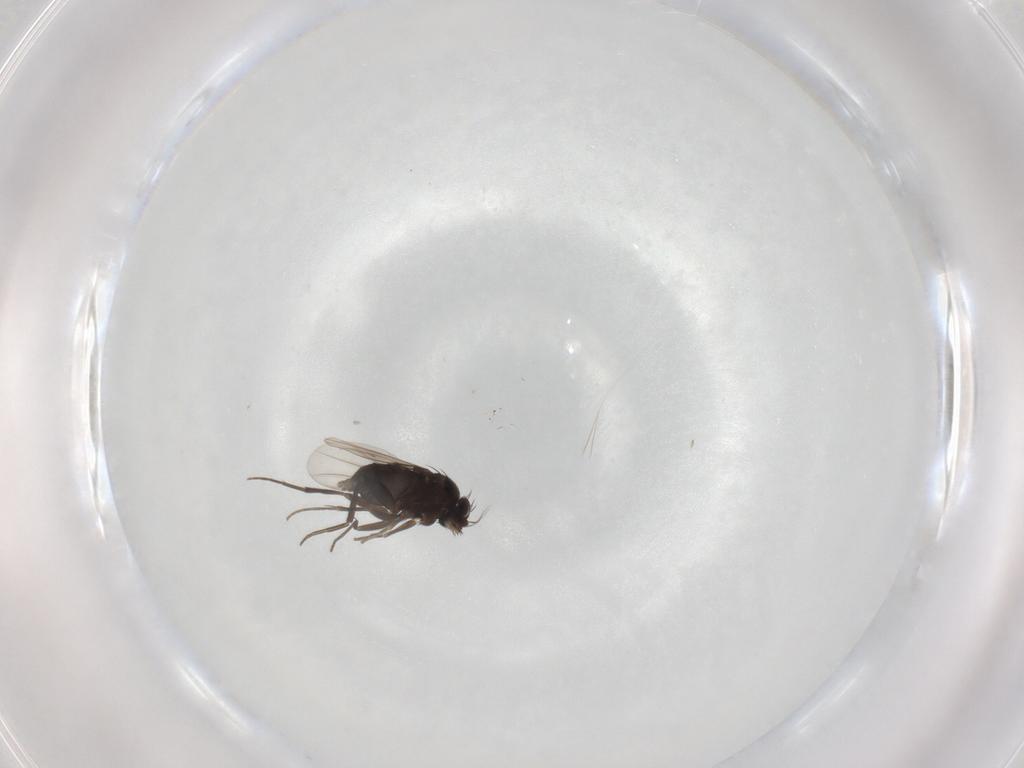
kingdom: Animalia
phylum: Arthropoda
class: Insecta
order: Diptera
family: Phoridae
